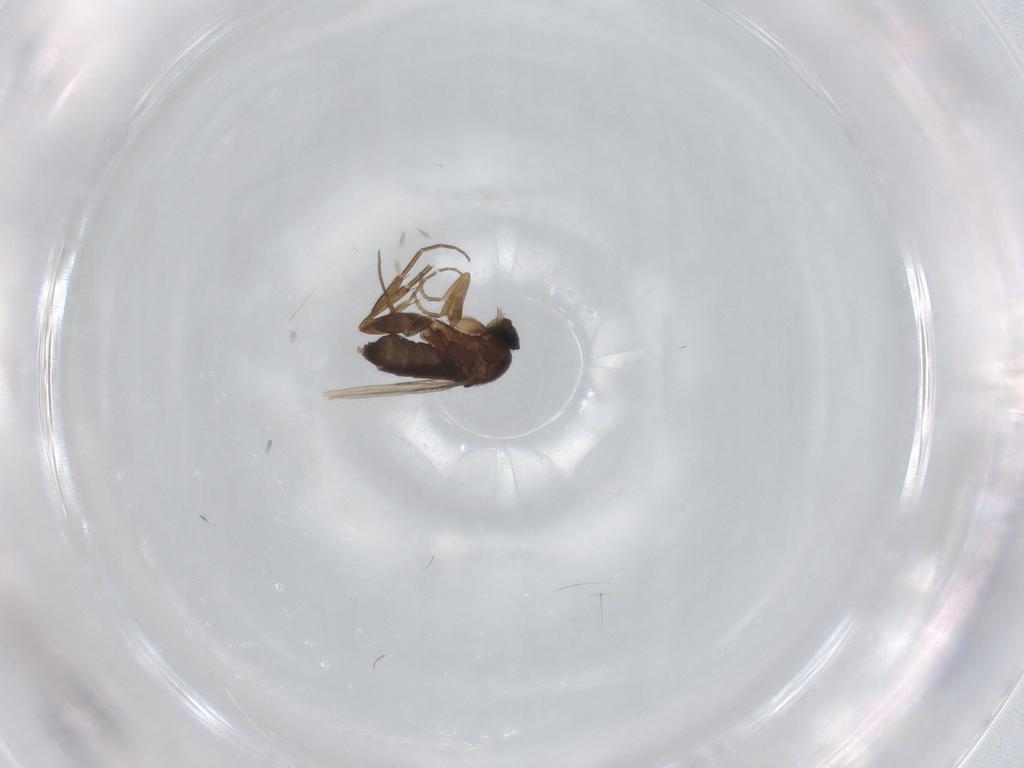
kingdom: Animalia
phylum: Arthropoda
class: Insecta
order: Diptera
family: Phoridae
